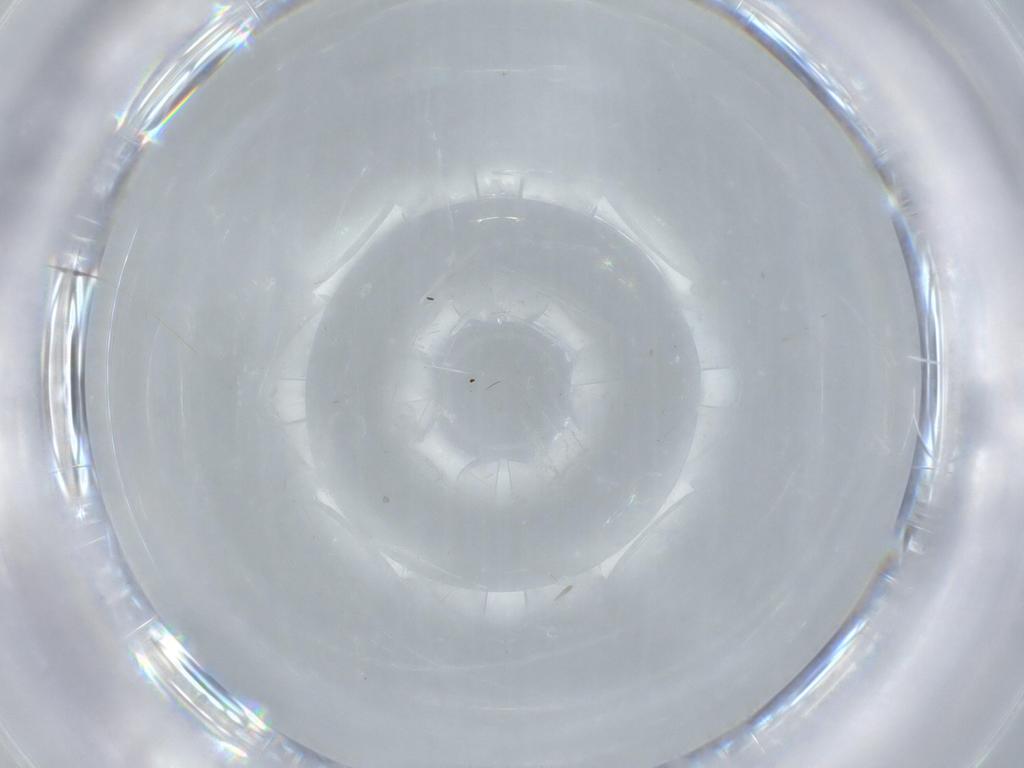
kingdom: Animalia
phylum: Arthropoda
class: Insecta
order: Diptera
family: Ceratopogonidae
